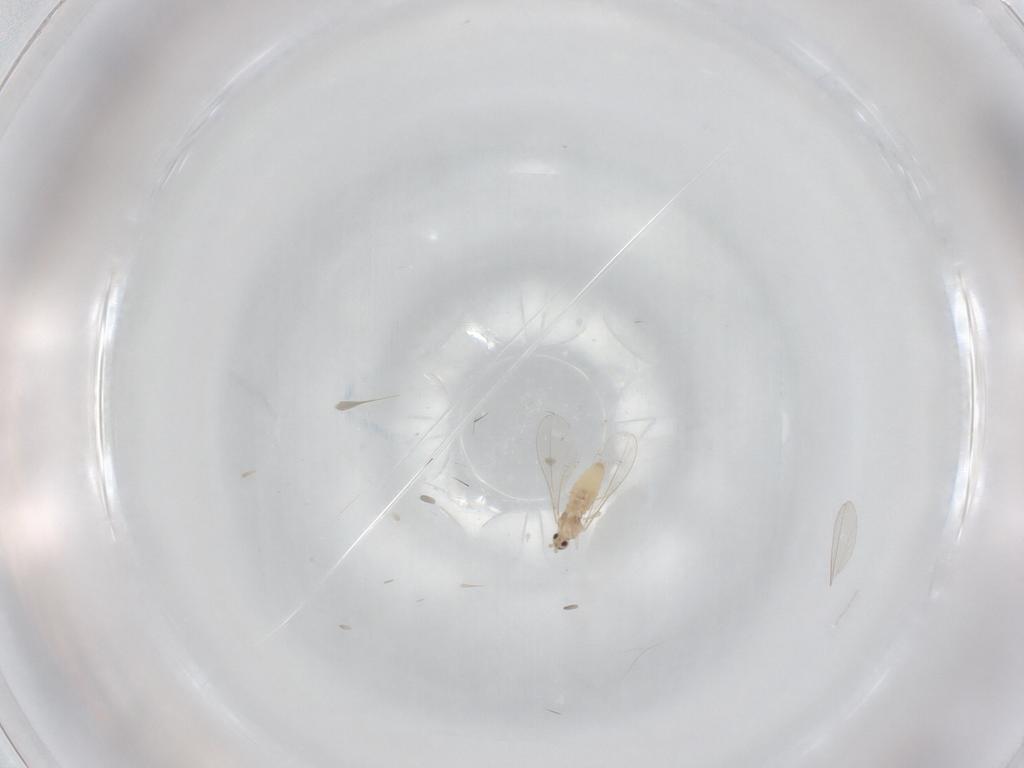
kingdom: Animalia
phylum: Arthropoda
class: Insecta
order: Diptera
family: Cecidomyiidae
